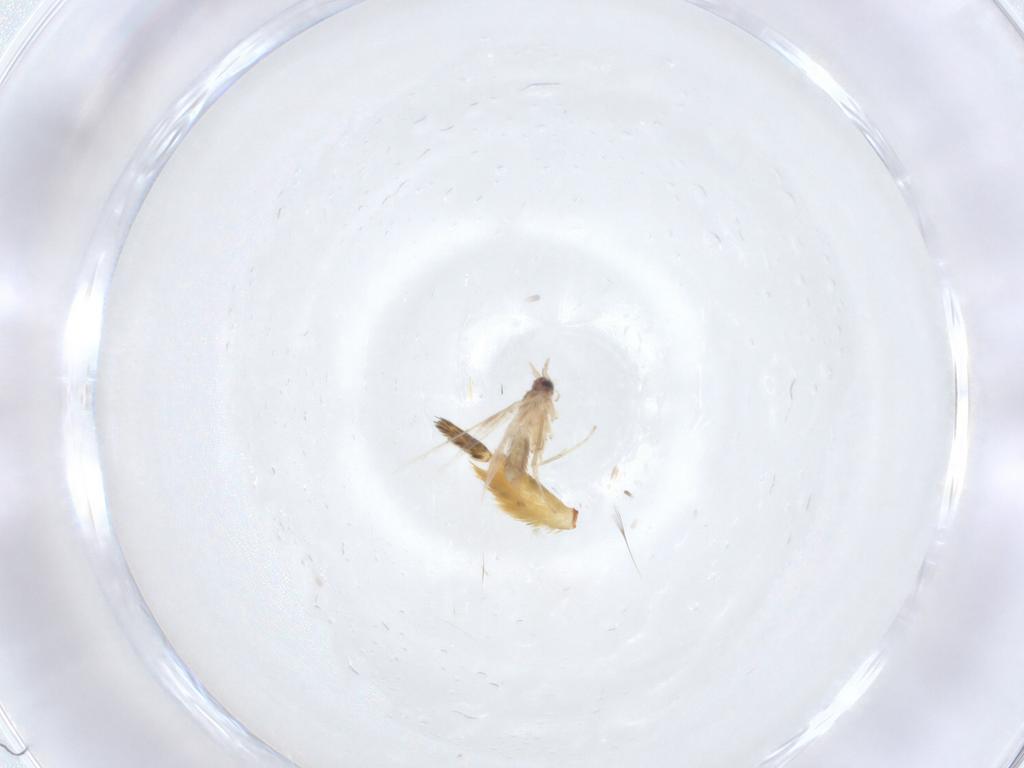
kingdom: Animalia
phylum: Arthropoda
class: Insecta
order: Lepidoptera
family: Nepticulidae
